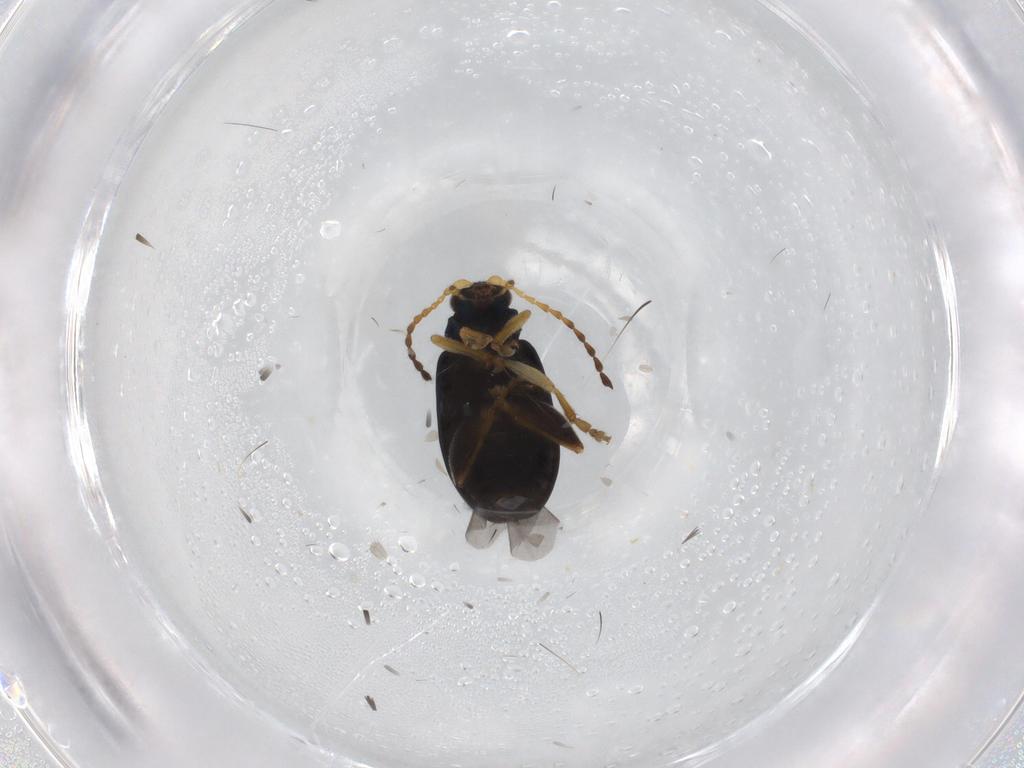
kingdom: Animalia
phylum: Arthropoda
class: Insecta
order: Coleoptera
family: Chrysomelidae
